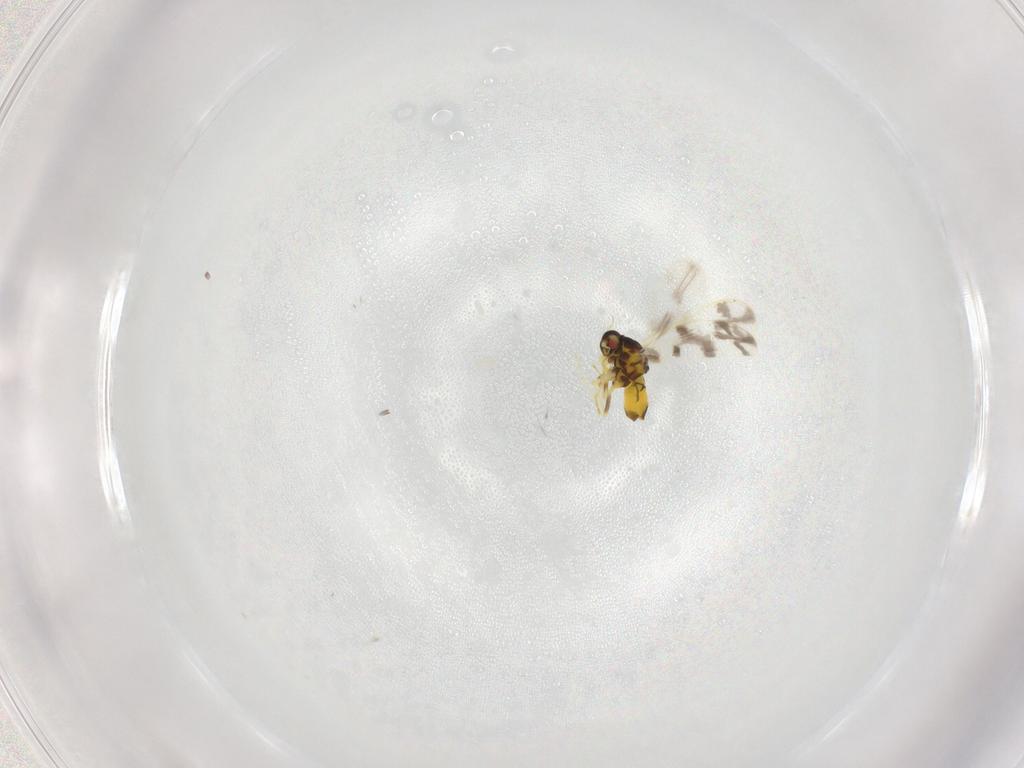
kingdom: Animalia
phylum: Arthropoda
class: Insecta
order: Hemiptera
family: Aleyrodidae
